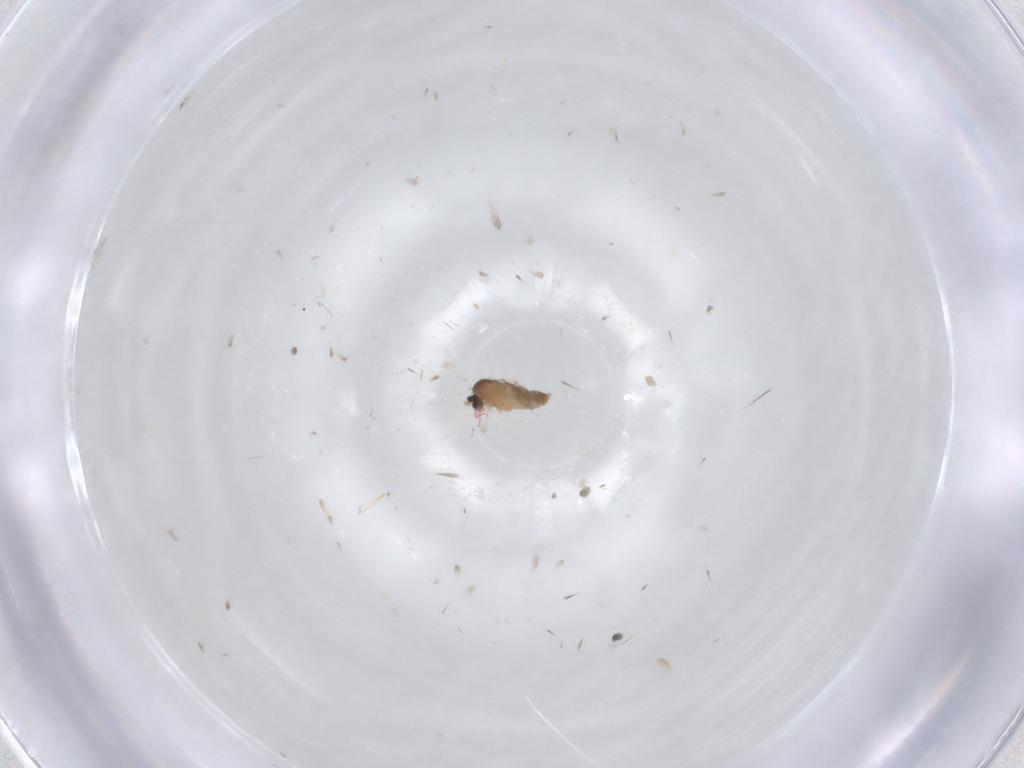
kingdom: Animalia
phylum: Arthropoda
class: Insecta
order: Diptera
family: Cecidomyiidae
